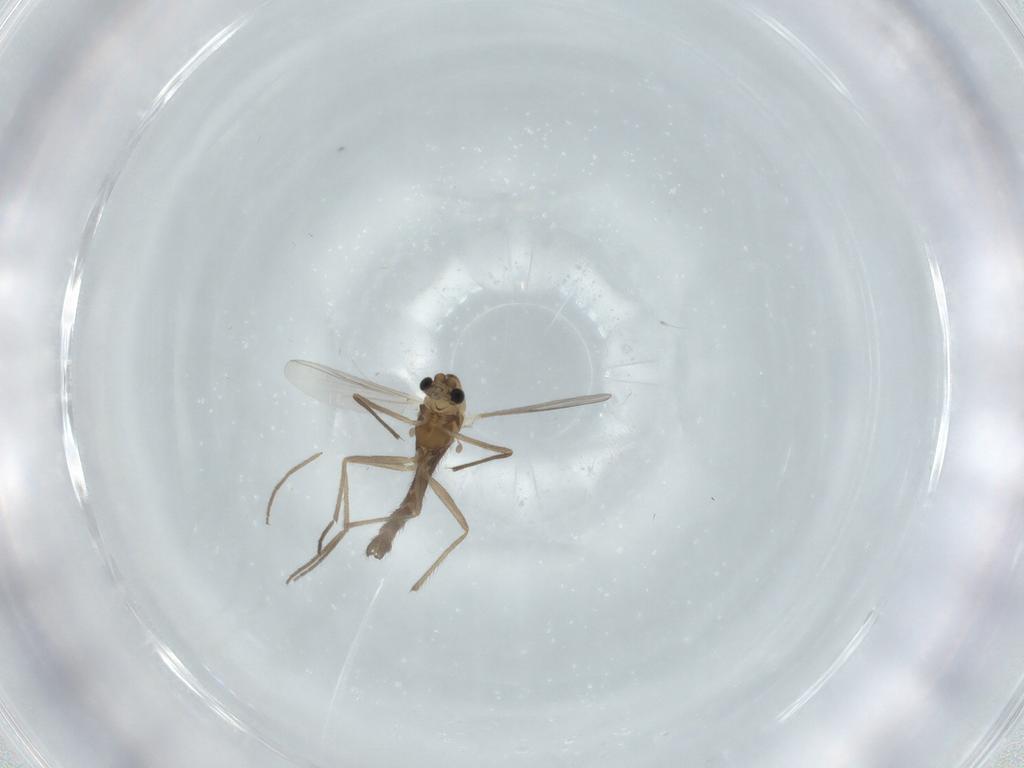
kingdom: Animalia
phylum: Arthropoda
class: Insecta
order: Diptera
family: Chironomidae
